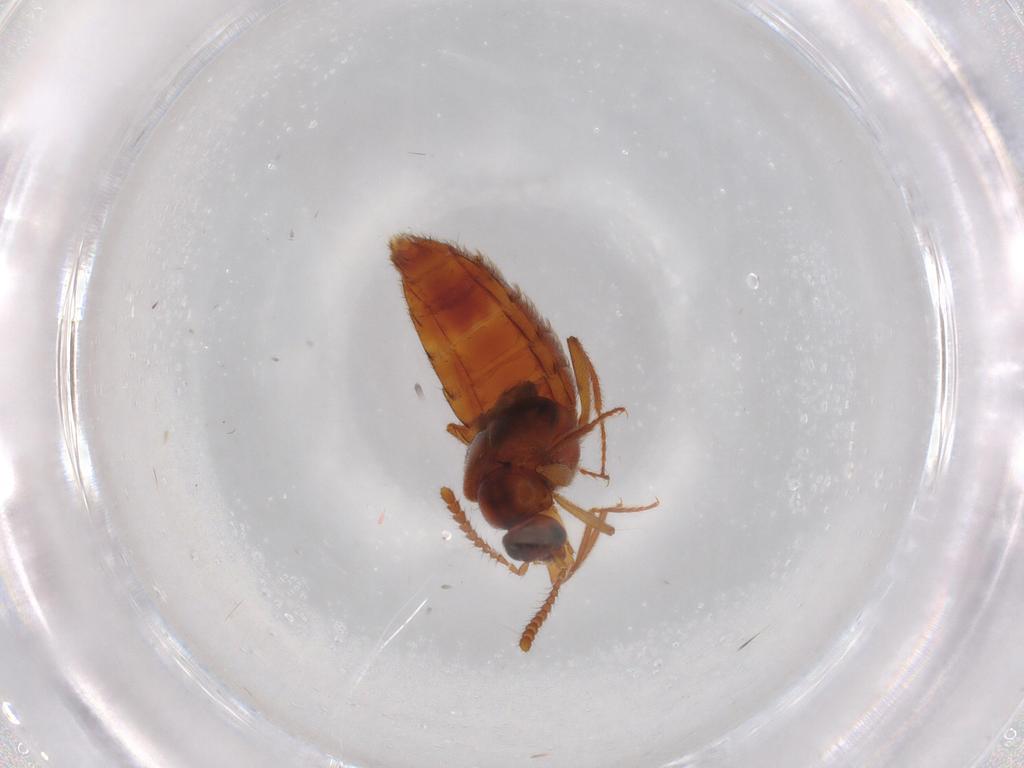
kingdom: Animalia
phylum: Arthropoda
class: Insecta
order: Coleoptera
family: Staphylinidae
